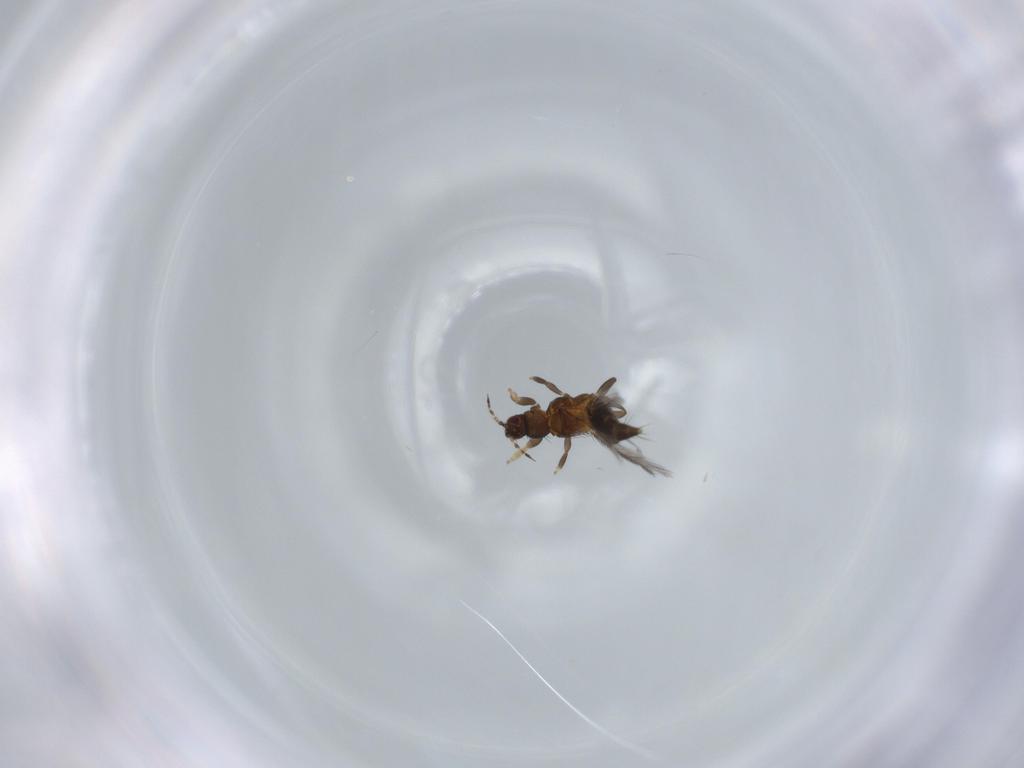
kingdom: Animalia
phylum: Arthropoda
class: Insecta
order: Thysanoptera
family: Thripidae
